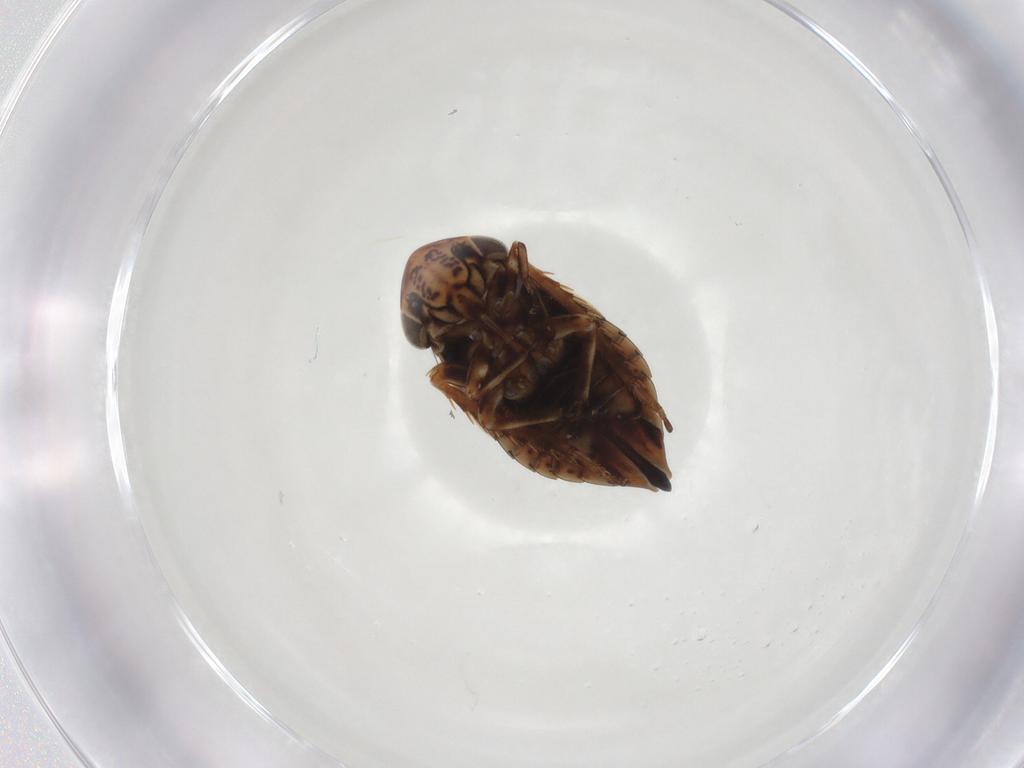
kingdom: Animalia
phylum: Arthropoda
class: Insecta
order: Hemiptera
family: Cicadellidae
